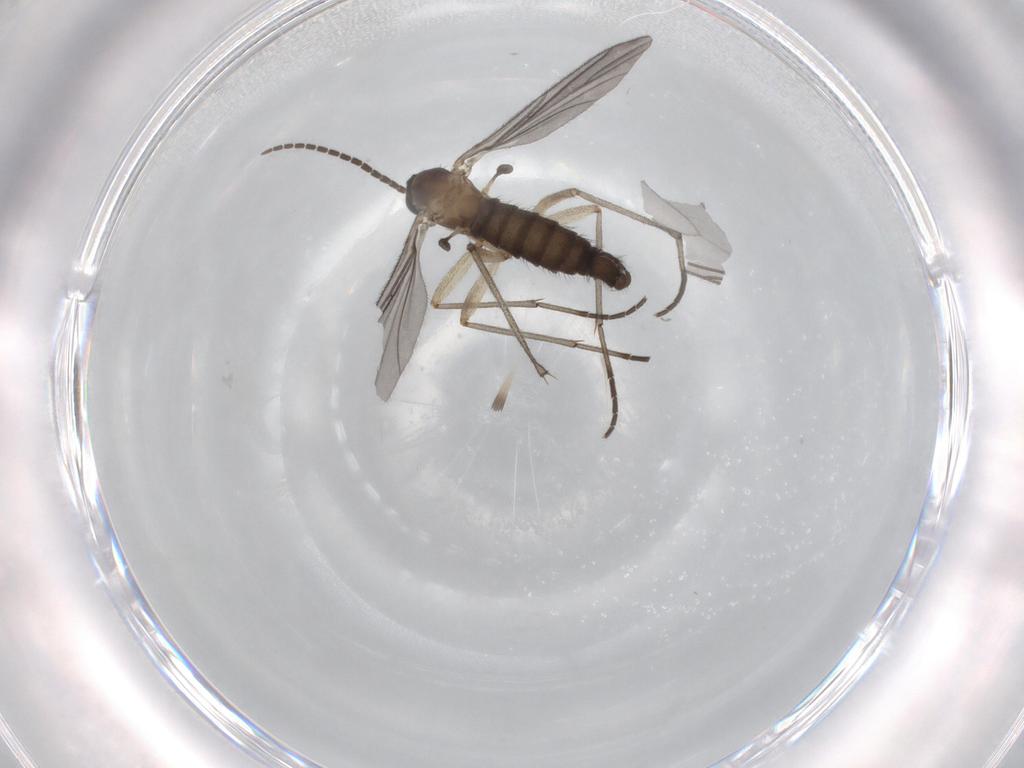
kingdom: Animalia
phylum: Arthropoda
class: Insecta
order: Diptera
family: Sciaridae
